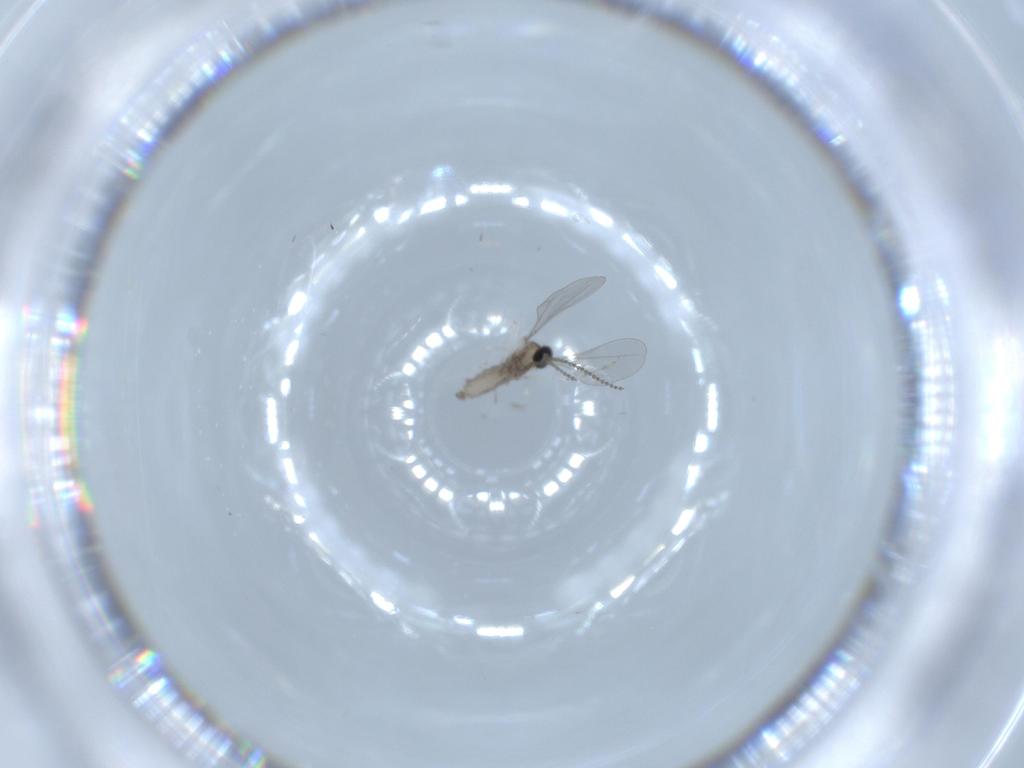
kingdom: Animalia
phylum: Arthropoda
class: Insecta
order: Diptera
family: Cecidomyiidae
